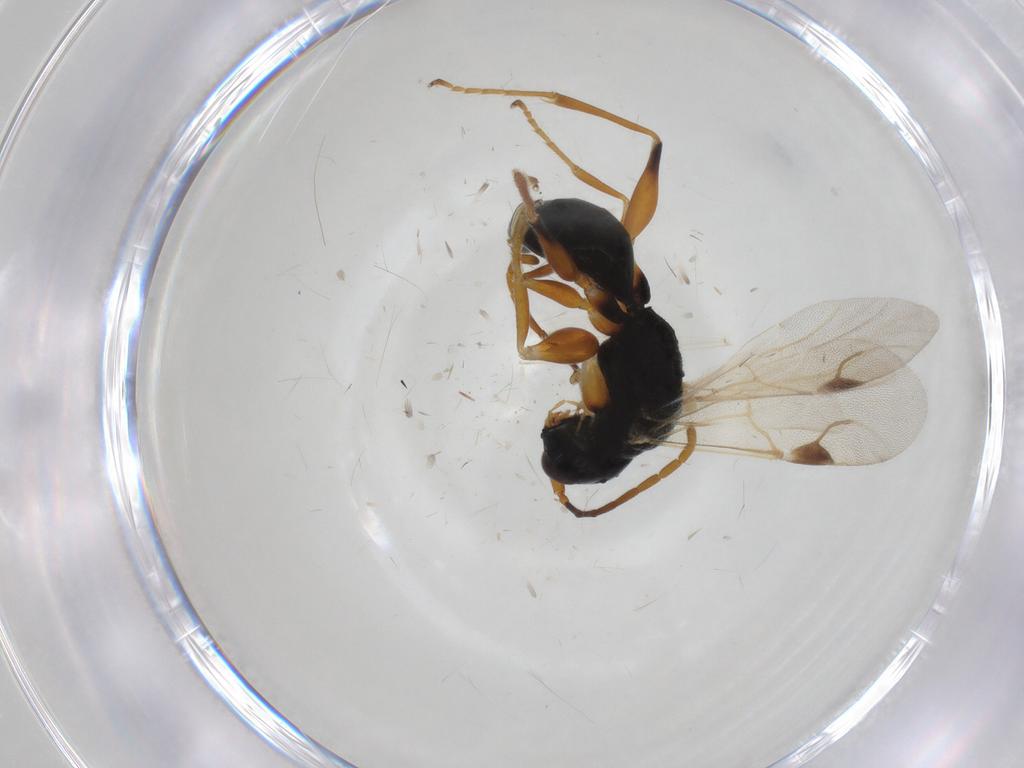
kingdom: Animalia
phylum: Arthropoda
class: Insecta
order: Hymenoptera
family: Dryinidae
